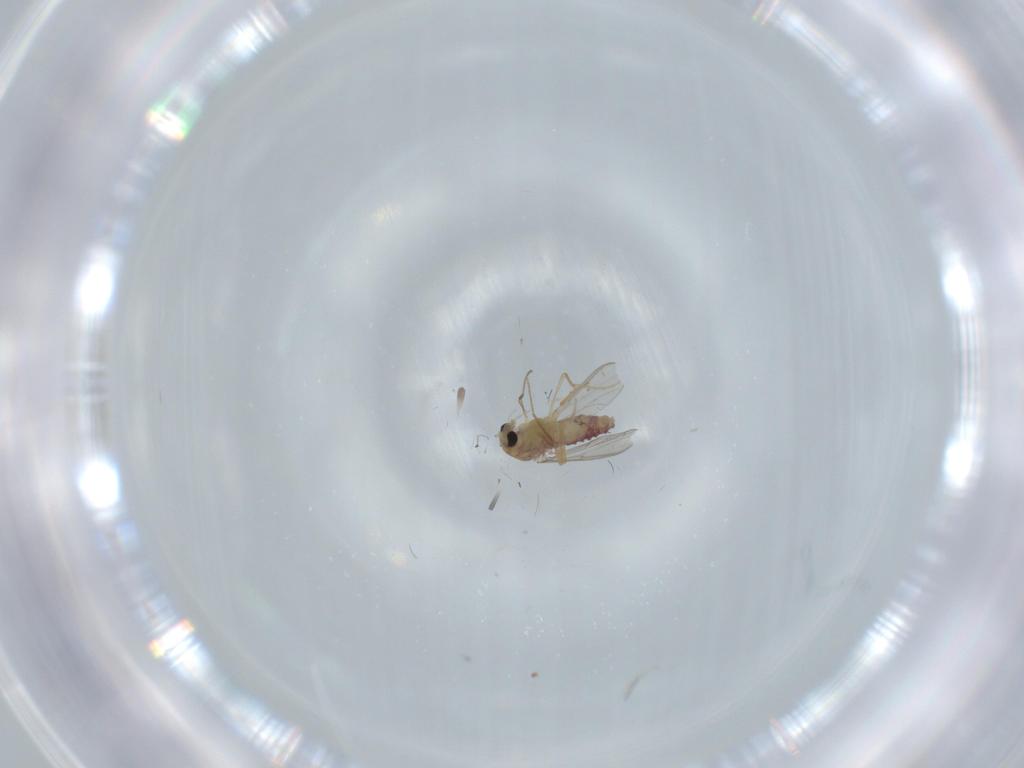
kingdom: Animalia
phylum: Arthropoda
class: Insecta
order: Diptera
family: Chironomidae
